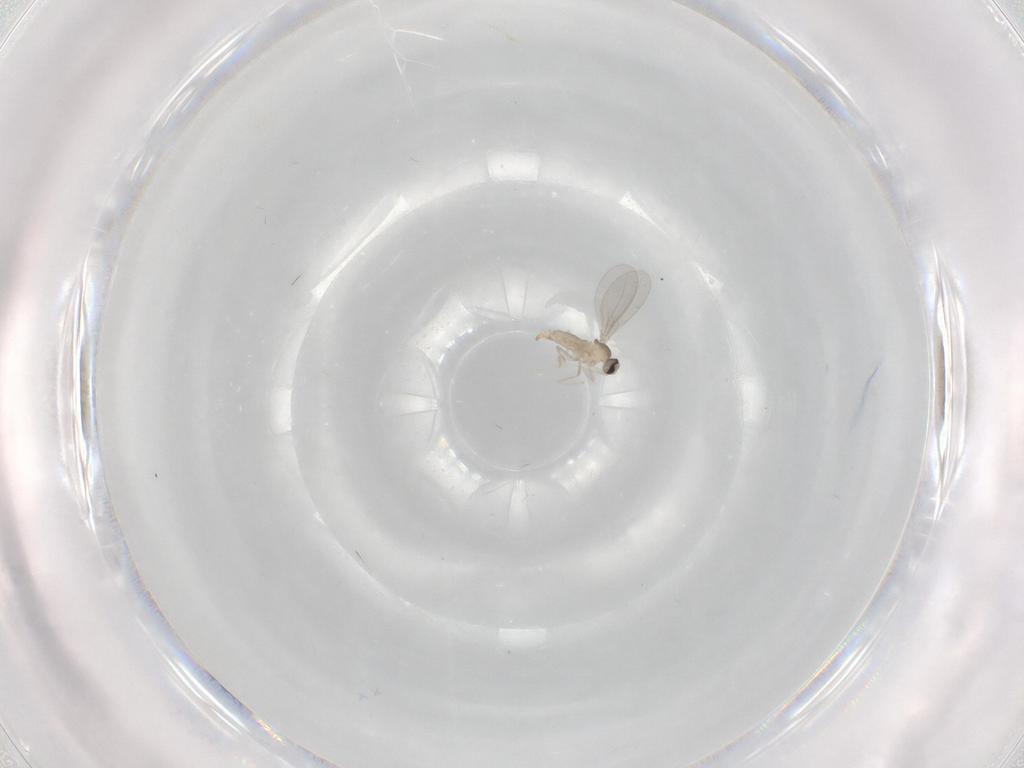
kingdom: Animalia
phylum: Arthropoda
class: Insecta
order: Diptera
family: Cecidomyiidae
